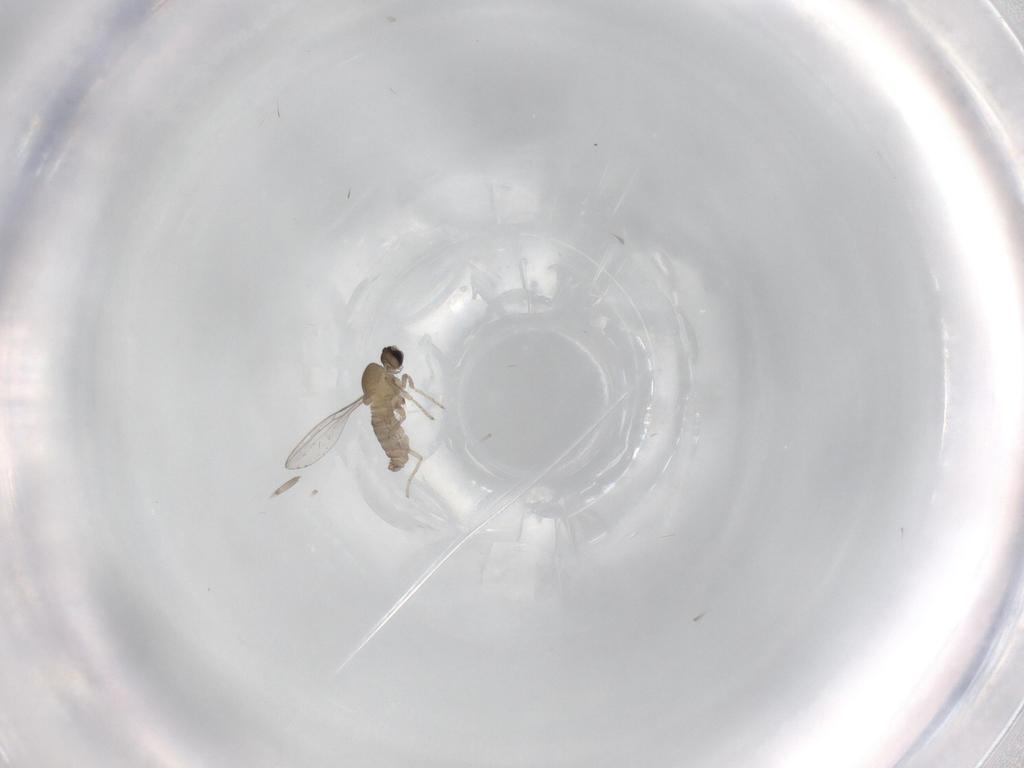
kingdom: Animalia
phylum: Arthropoda
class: Insecta
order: Diptera
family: Cecidomyiidae
